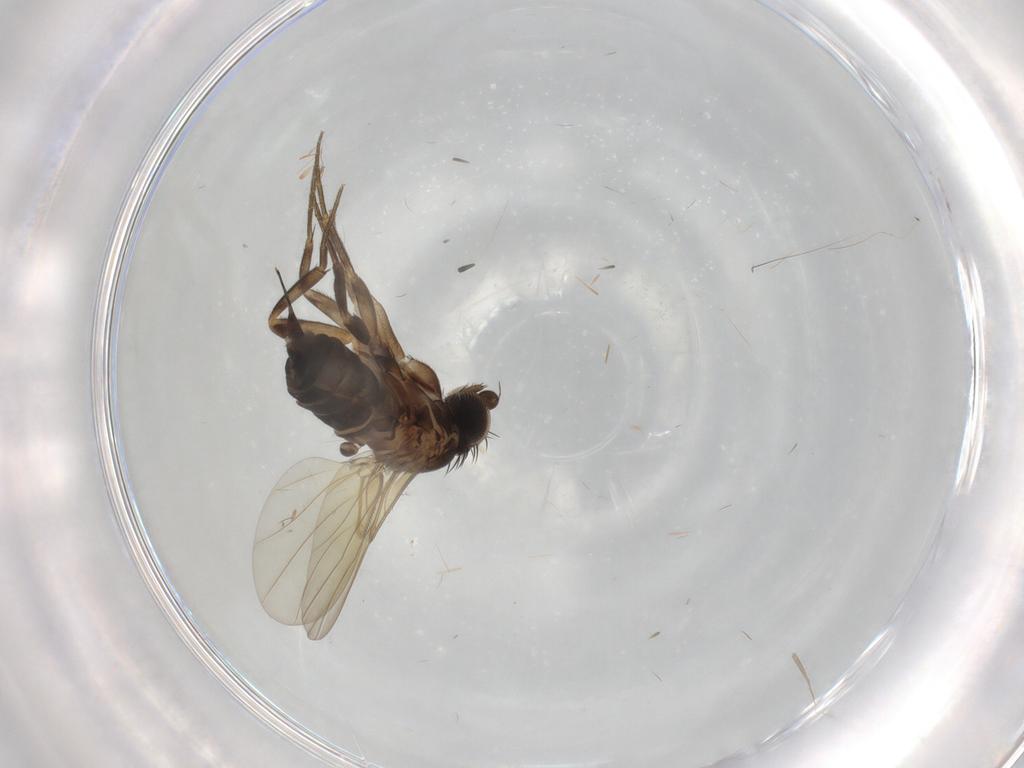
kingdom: Animalia
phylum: Arthropoda
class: Insecta
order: Diptera
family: Phoridae
